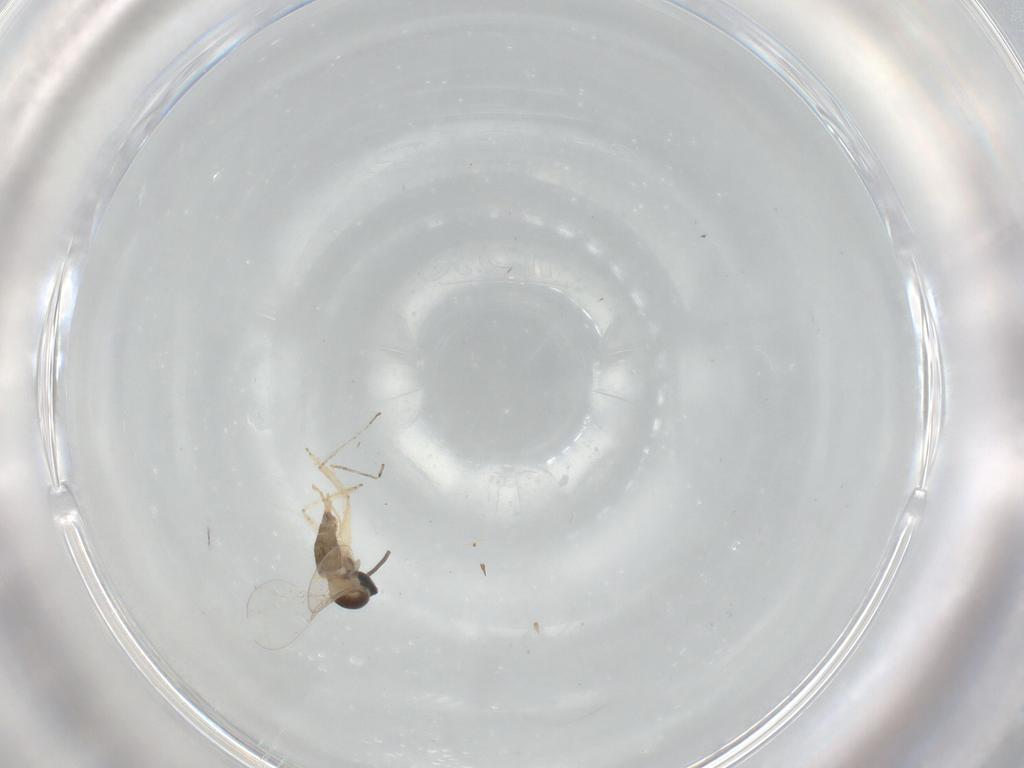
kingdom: Animalia
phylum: Arthropoda
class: Insecta
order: Diptera
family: Cecidomyiidae
